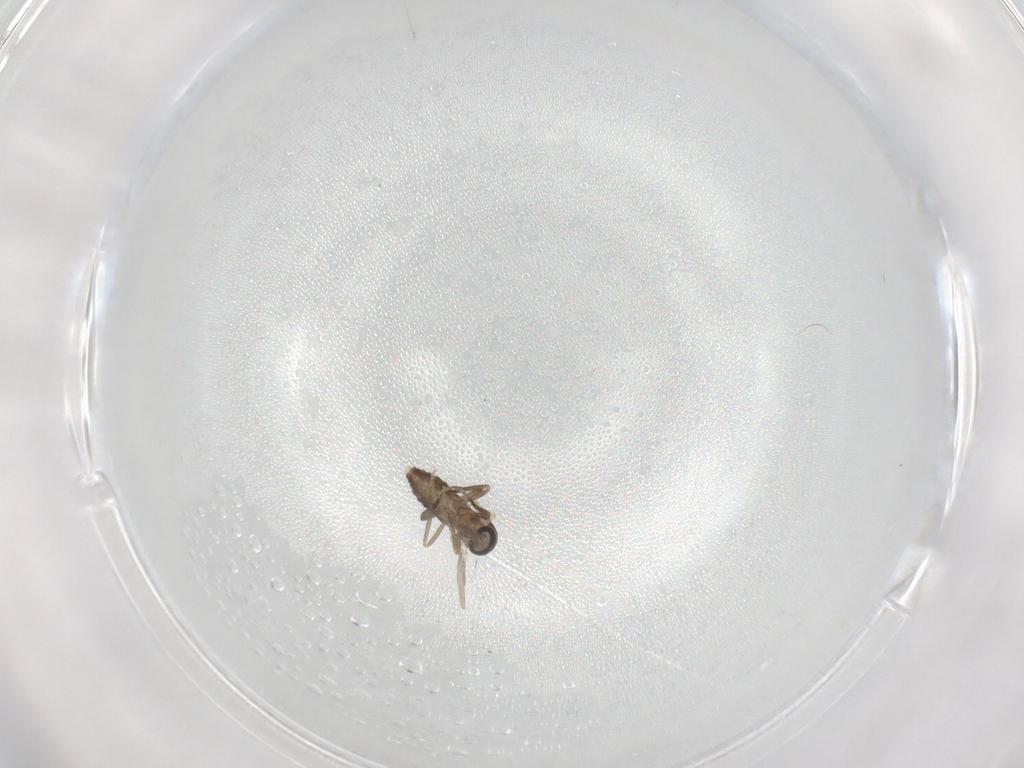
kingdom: Animalia
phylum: Arthropoda
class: Insecta
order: Diptera
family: Ceratopogonidae
